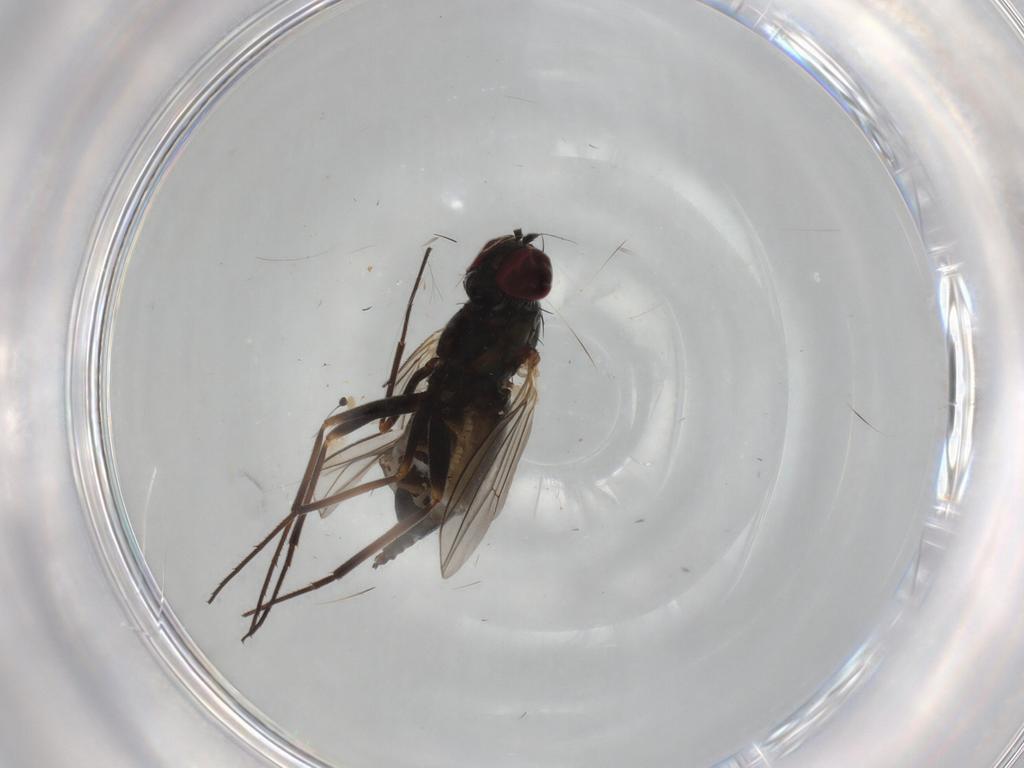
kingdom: Animalia
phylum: Arthropoda
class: Insecta
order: Diptera
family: Dolichopodidae
